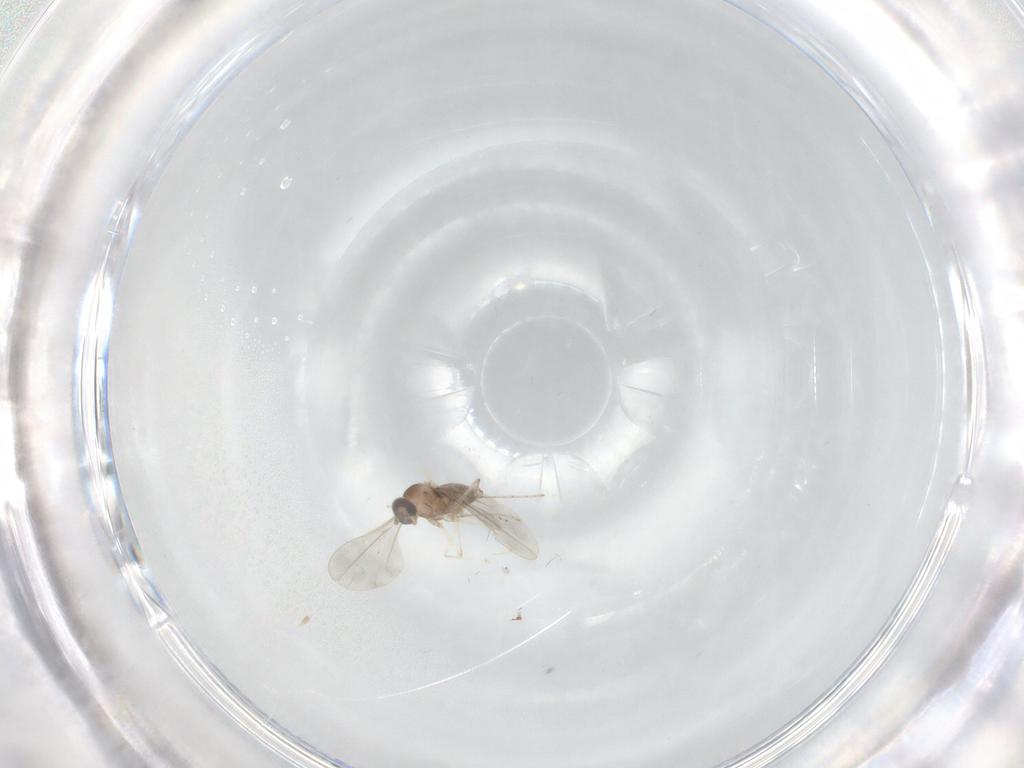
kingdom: Animalia
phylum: Arthropoda
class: Insecta
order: Diptera
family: Cecidomyiidae
